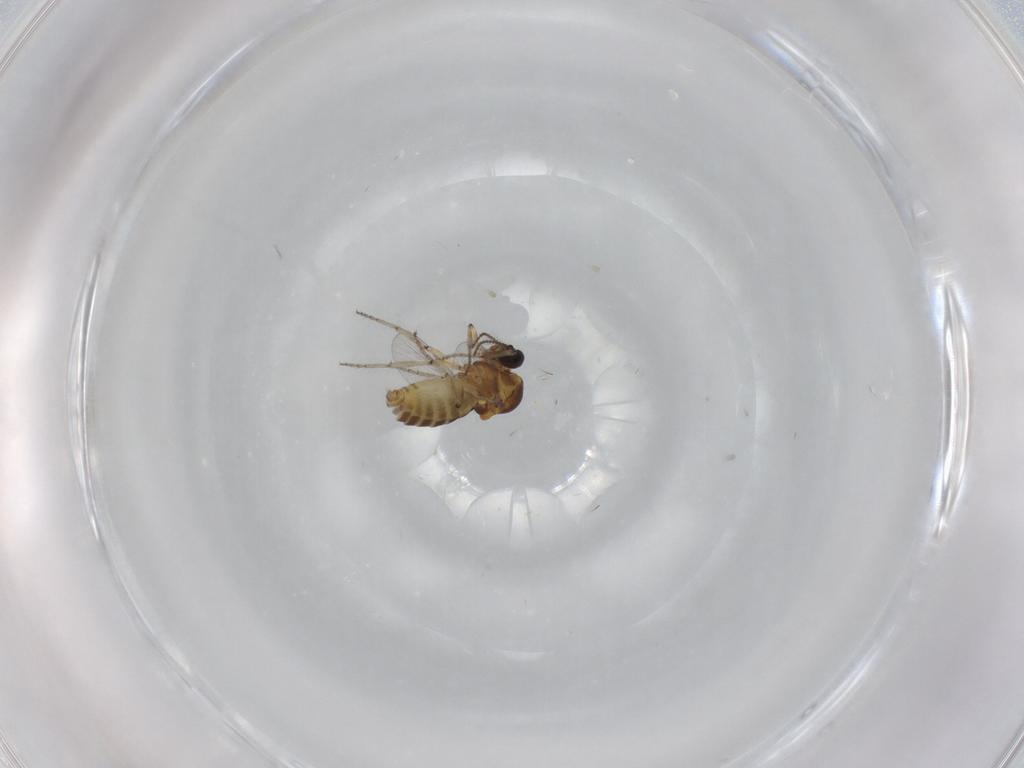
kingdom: Animalia
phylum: Arthropoda
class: Insecta
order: Diptera
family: Ceratopogonidae
